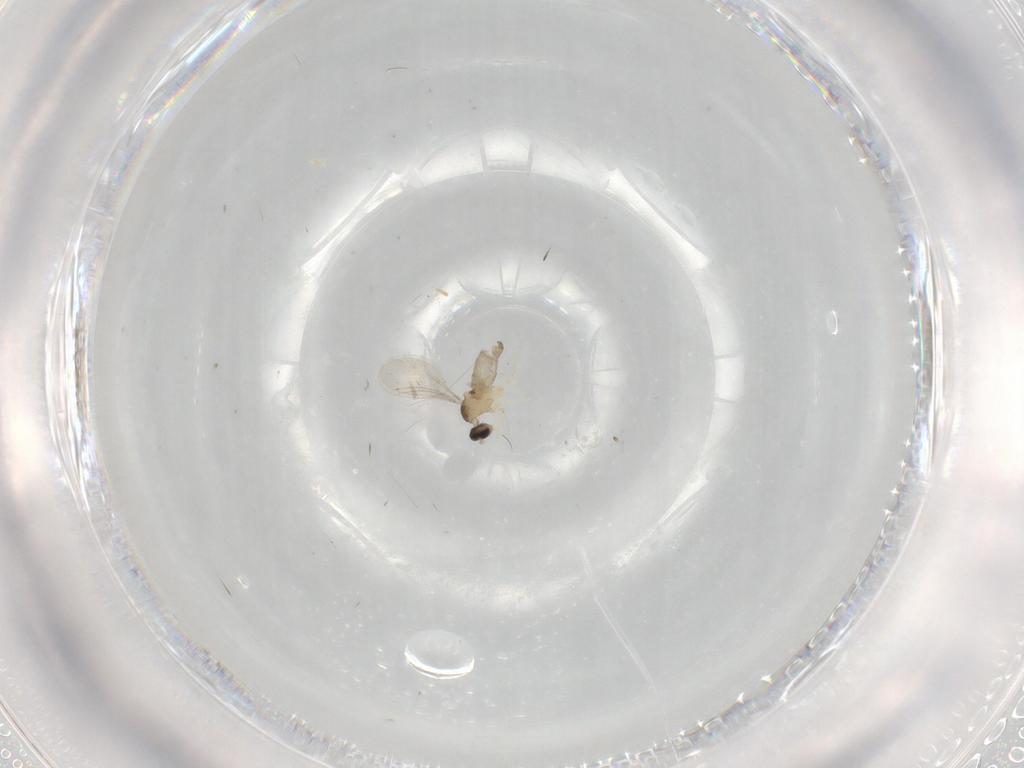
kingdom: Animalia
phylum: Arthropoda
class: Insecta
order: Diptera
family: Cecidomyiidae
